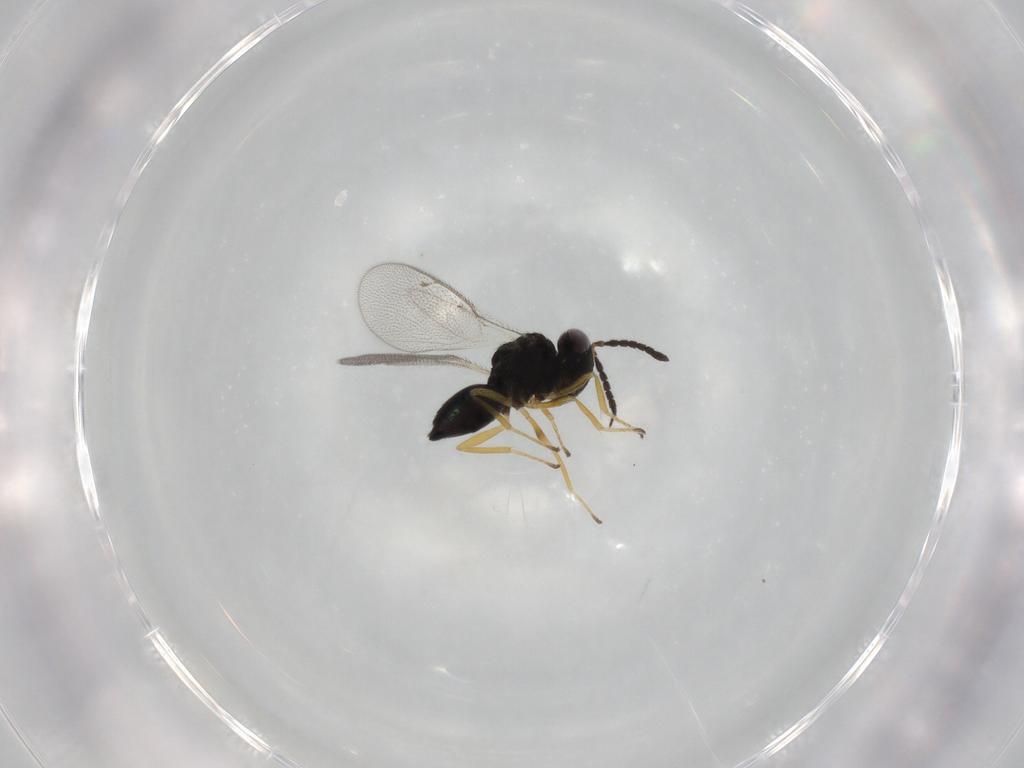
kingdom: Animalia
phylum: Arthropoda
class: Insecta
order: Hymenoptera
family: Pteromalidae
